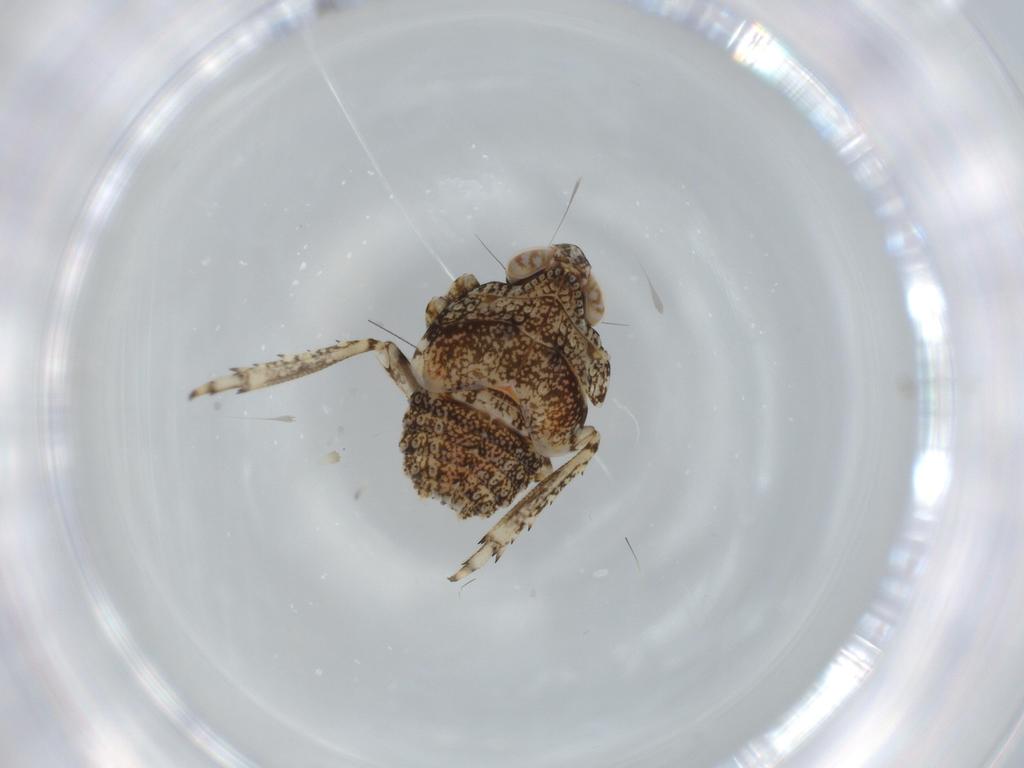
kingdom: Animalia
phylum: Arthropoda
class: Insecta
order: Hemiptera
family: Issidae
